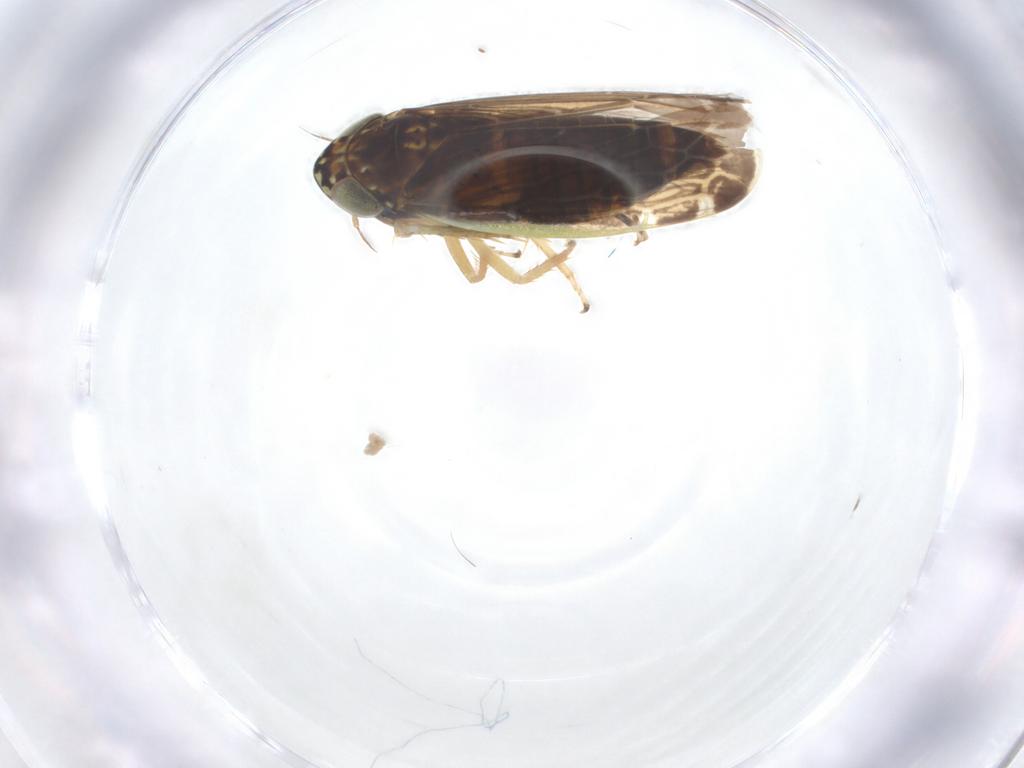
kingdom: Animalia
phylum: Arthropoda
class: Insecta
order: Hemiptera
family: Cicadellidae
